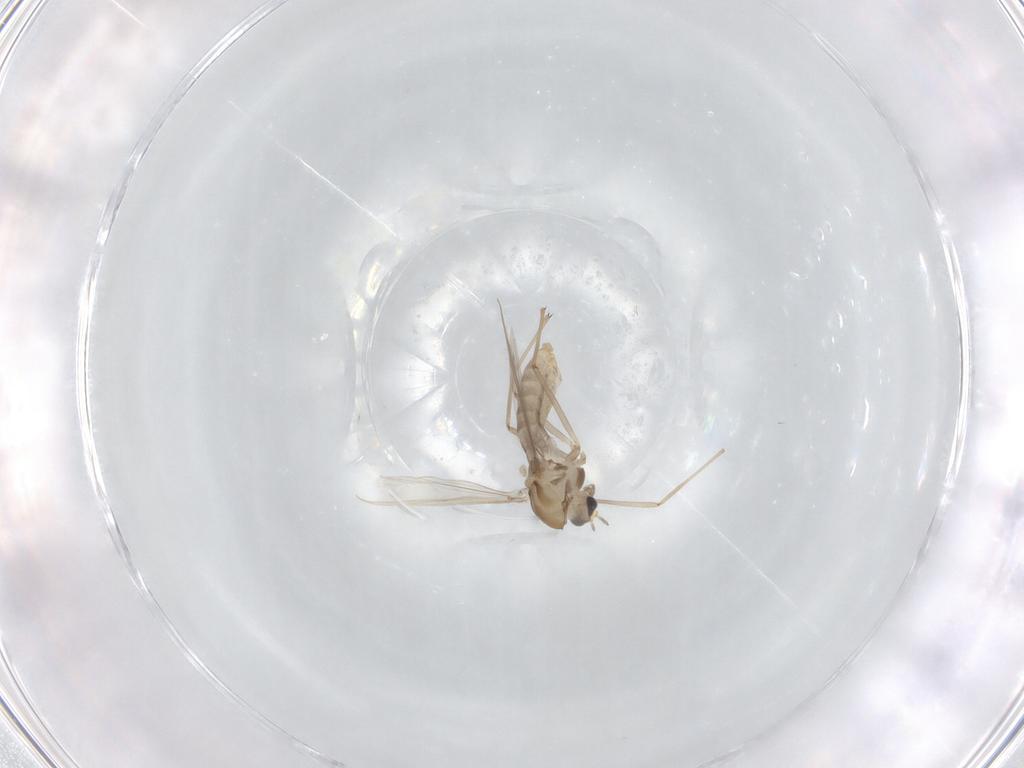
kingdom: Animalia
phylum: Arthropoda
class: Insecta
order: Diptera
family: Chironomidae
